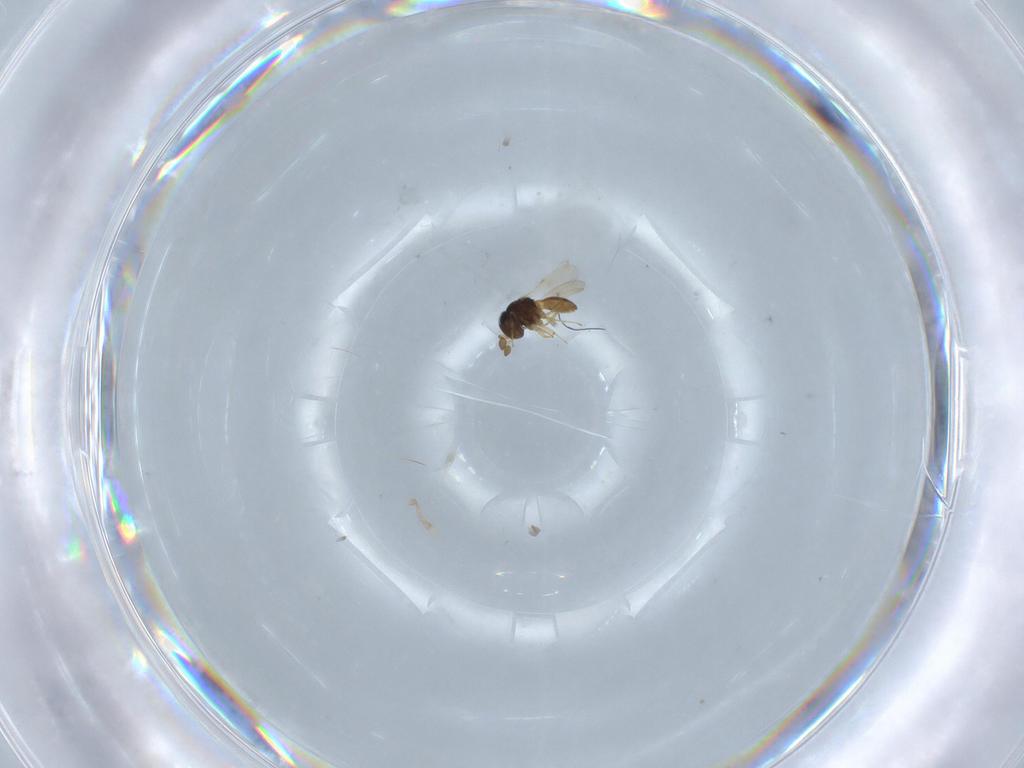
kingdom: Animalia
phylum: Arthropoda
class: Insecta
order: Hymenoptera
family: Scelionidae
